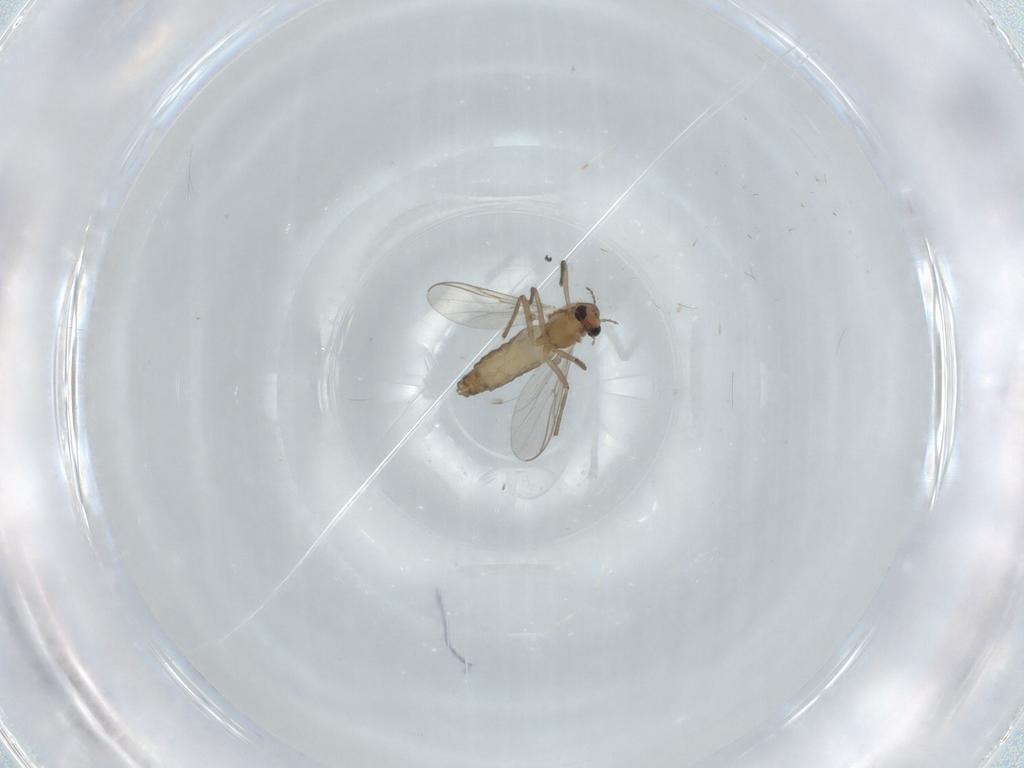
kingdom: Animalia
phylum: Arthropoda
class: Insecta
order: Diptera
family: Chironomidae
